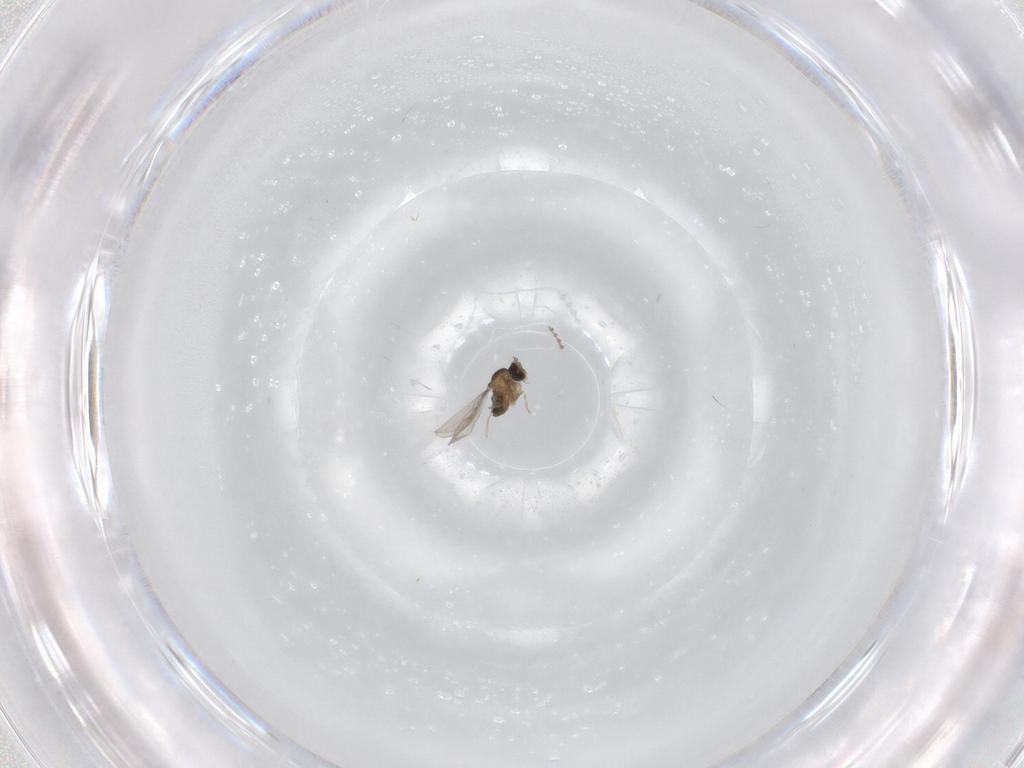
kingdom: Animalia
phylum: Arthropoda
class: Insecta
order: Diptera
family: Cecidomyiidae
